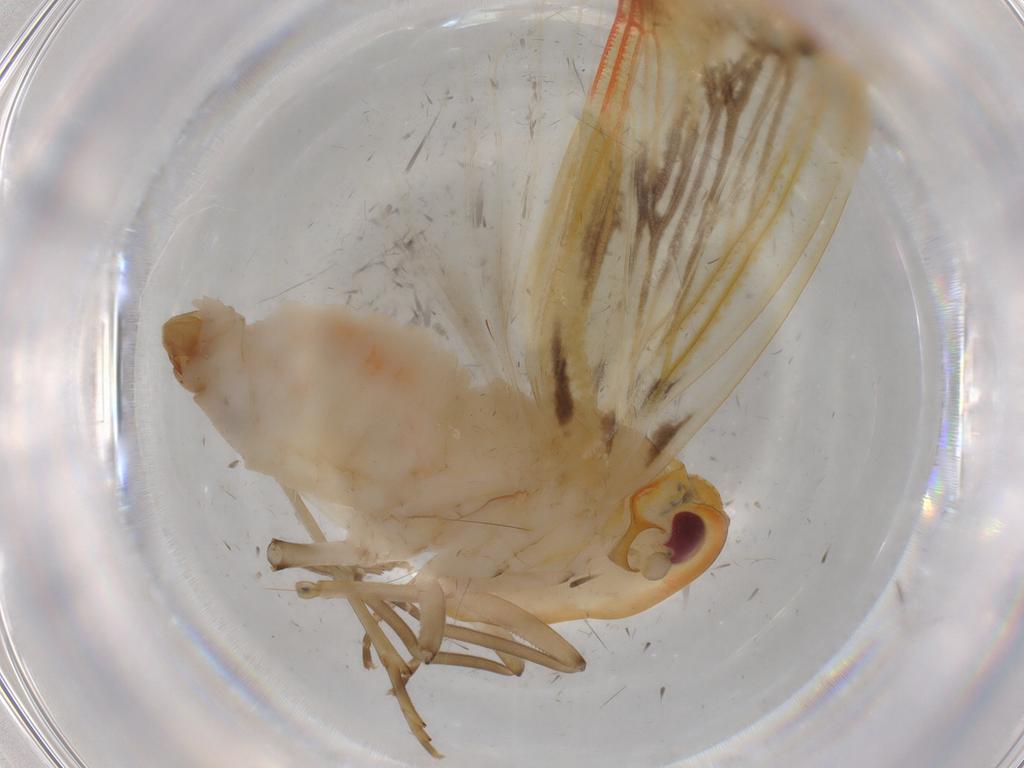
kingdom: Animalia
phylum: Arthropoda
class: Insecta
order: Hemiptera
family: Derbidae
